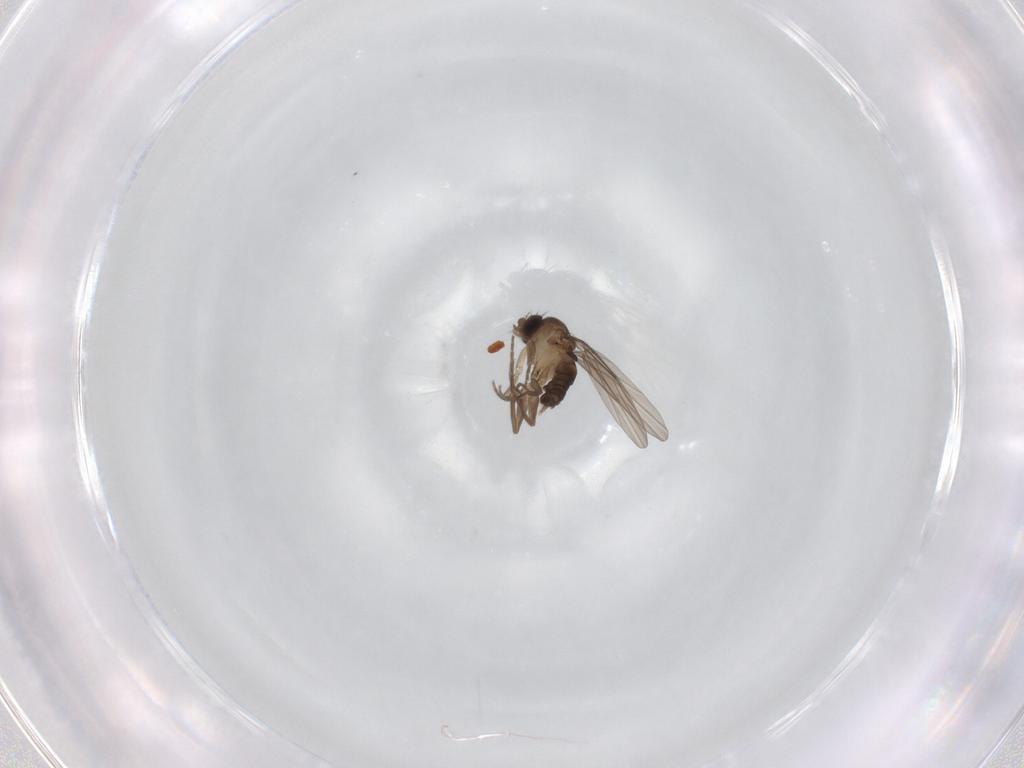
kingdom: Animalia
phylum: Arthropoda
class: Insecta
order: Diptera
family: Phoridae
